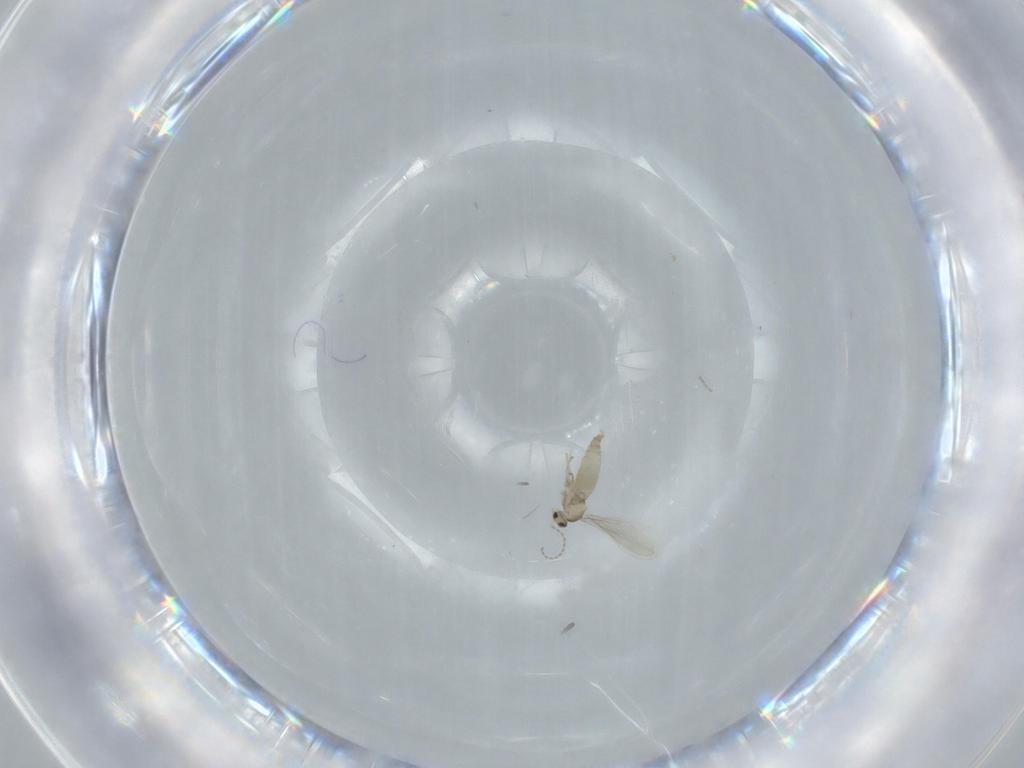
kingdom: Animalia
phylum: Arthropoda
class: Insecta
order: Diptera
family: Cecidomyiidae
